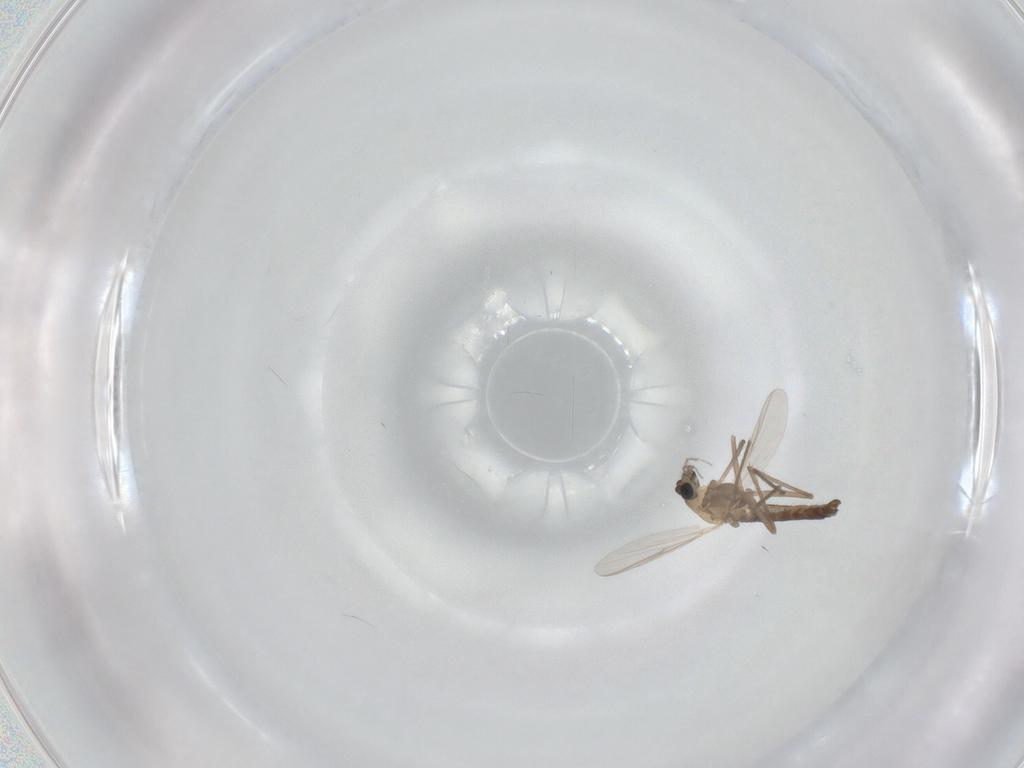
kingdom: Animalia
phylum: Arthropoda
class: Insecta
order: Diptera
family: Chironomidae
